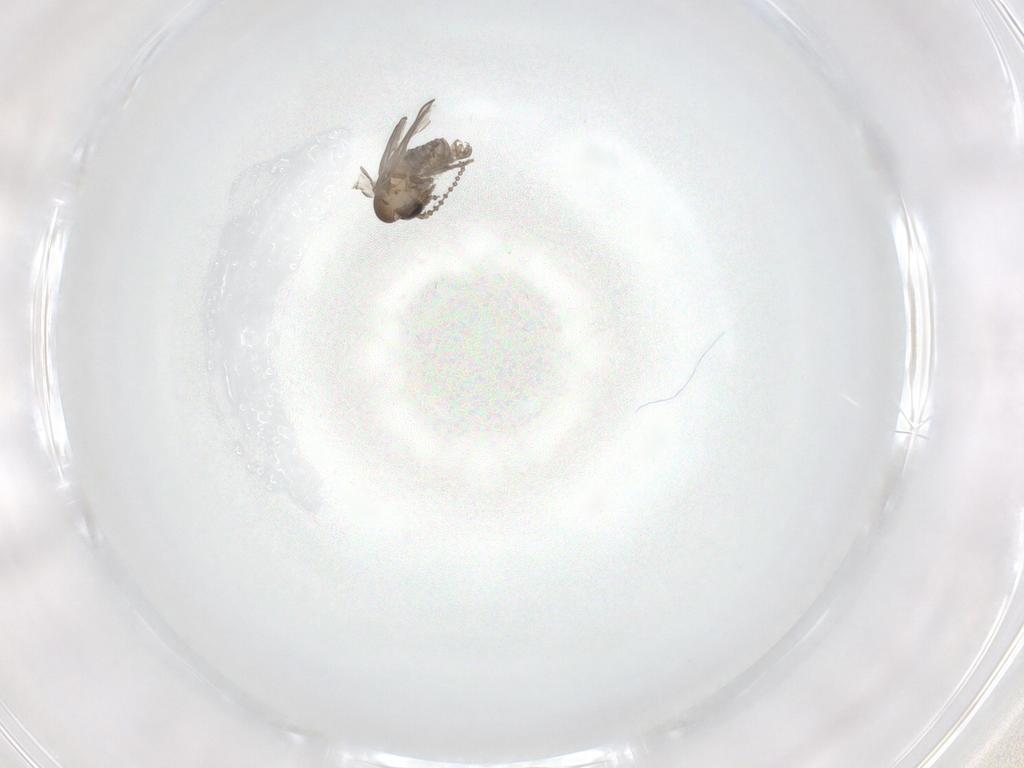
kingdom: Animalia
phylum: Arthropoda
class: Insecta
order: Diptera
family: Psychodidae
